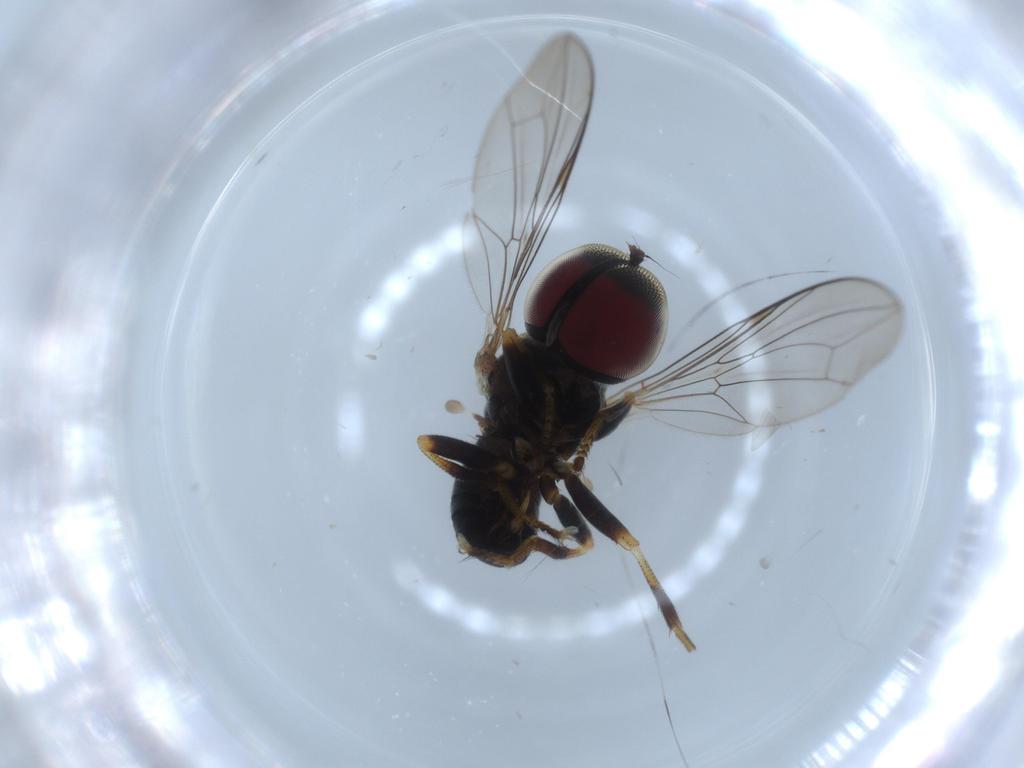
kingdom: Animalia
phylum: Arthropoda
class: Insecta
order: Diptera
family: Pipunculidae
